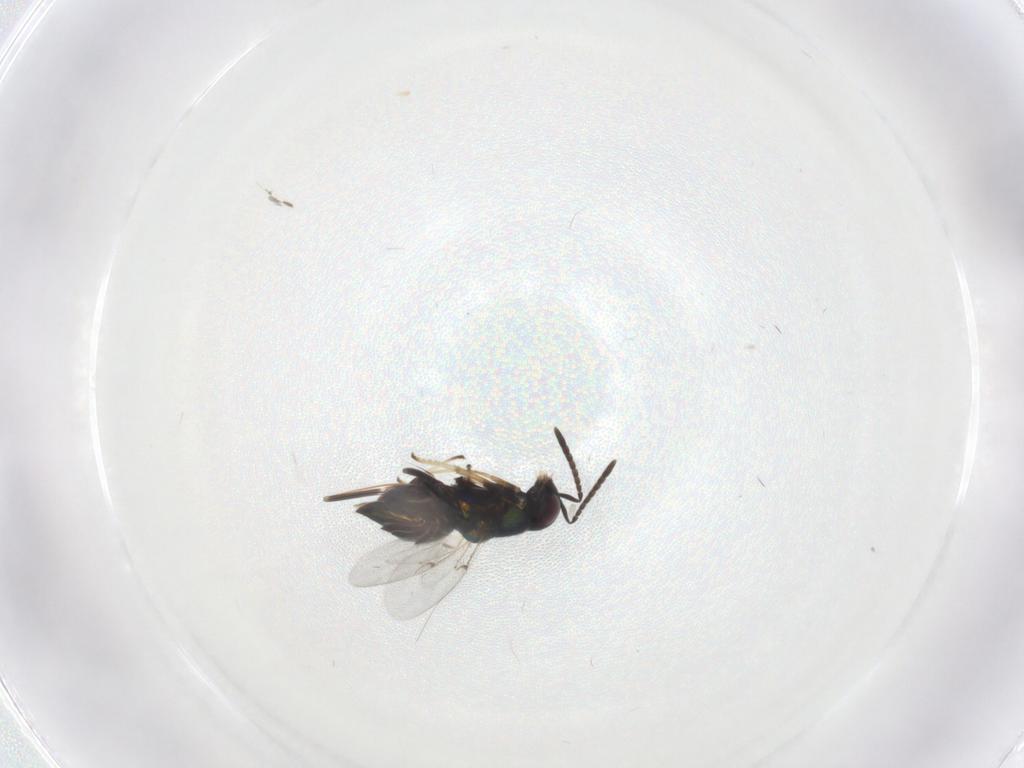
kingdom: Animalia
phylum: Arthropoda
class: Insecta
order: Hymenoptera
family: Encyrtidae
